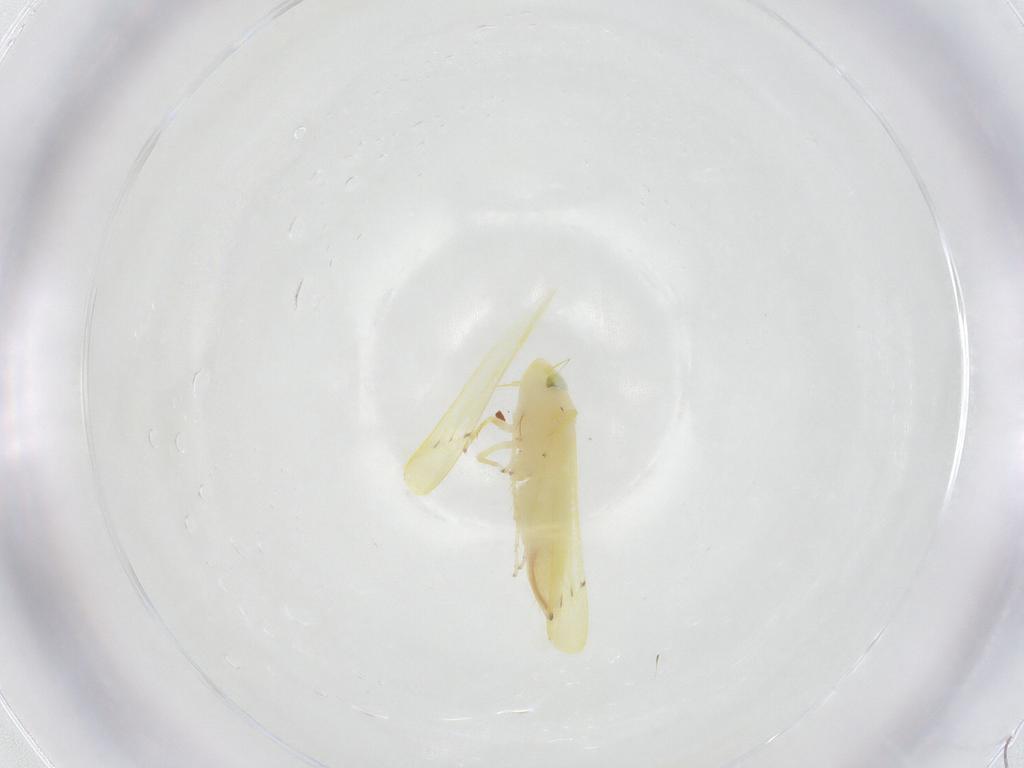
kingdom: Animalia
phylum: Arthropoda
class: Insecta
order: Hemiptera
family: Cicadellidae
